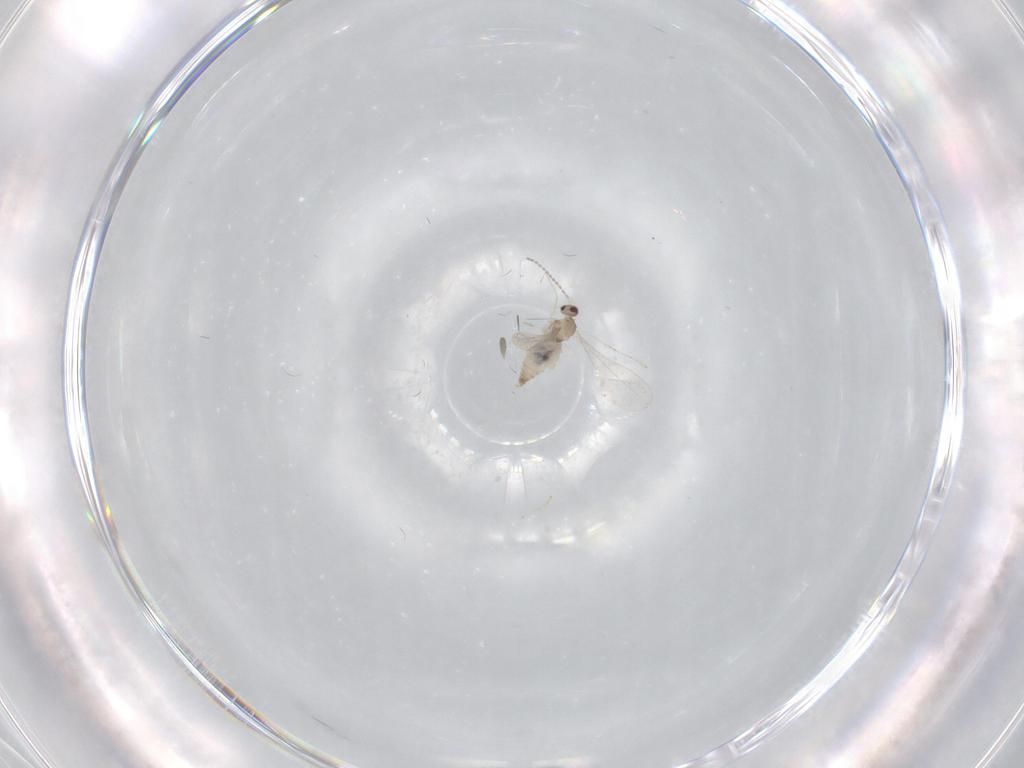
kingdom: Animalia
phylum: Arthropoda
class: Insecta
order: Diptera
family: Cecidomyiidae
